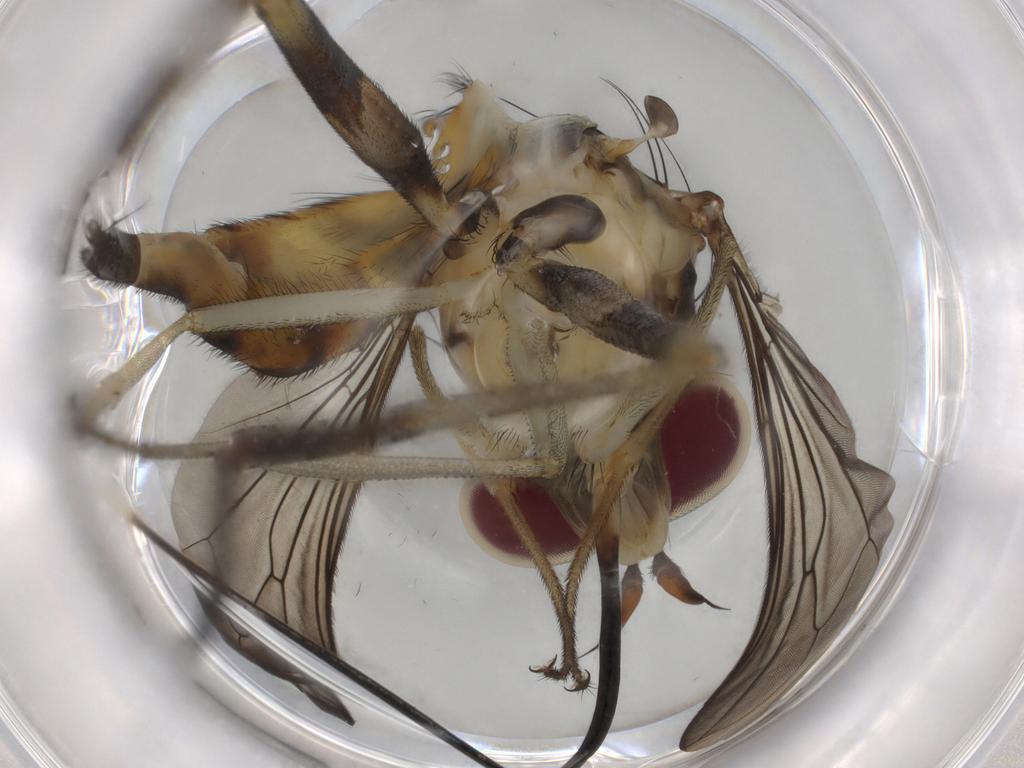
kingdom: Animalia
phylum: Arthropoda
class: Insecta
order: Diptera
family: Conopidae
